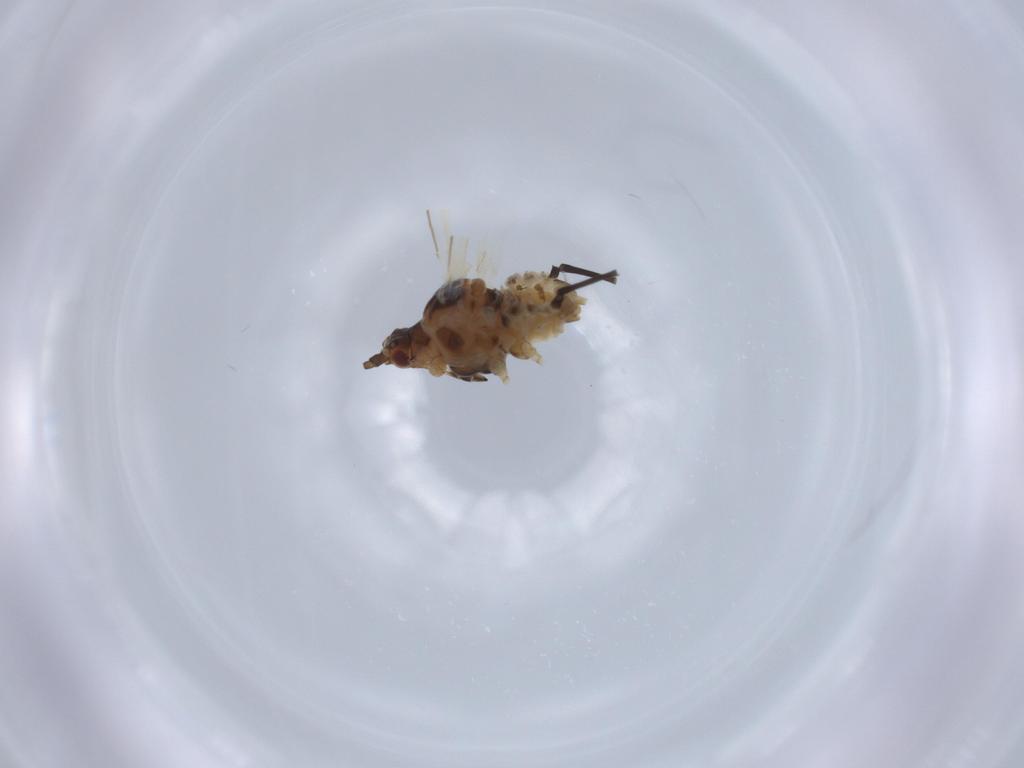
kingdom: Animalia
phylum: Arthropoda
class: Insecta
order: Hemiptera
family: Aphididae
